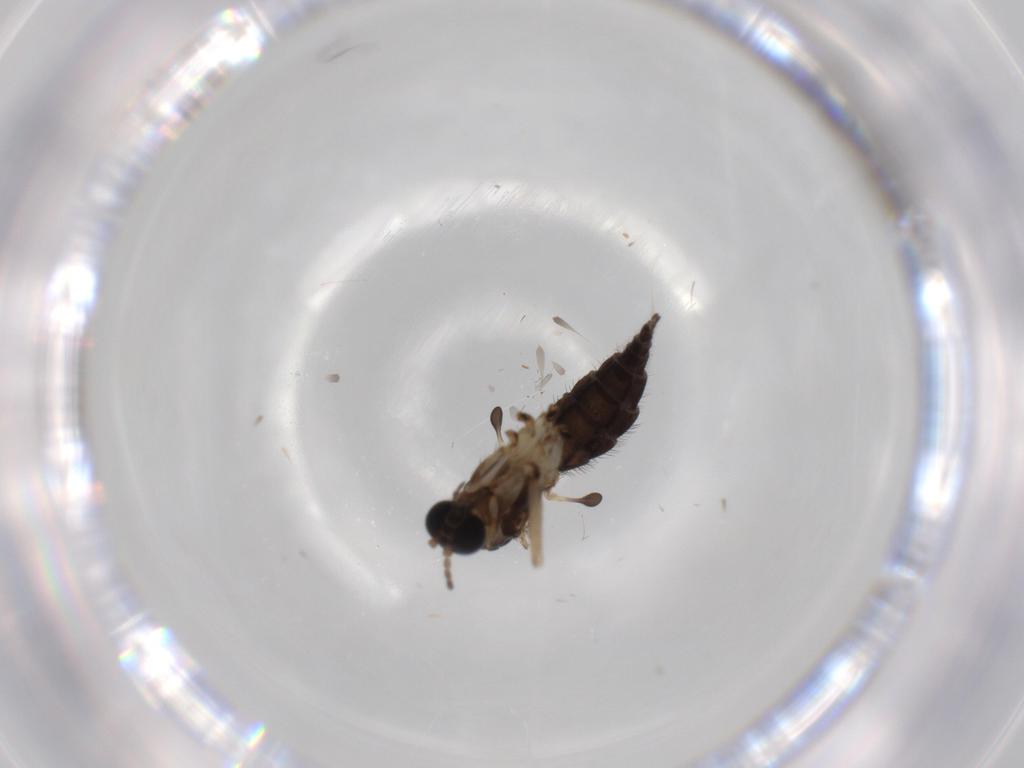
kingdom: Animalia
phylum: Arthropoda
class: Insecta
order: Diptera
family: Sciaridae
